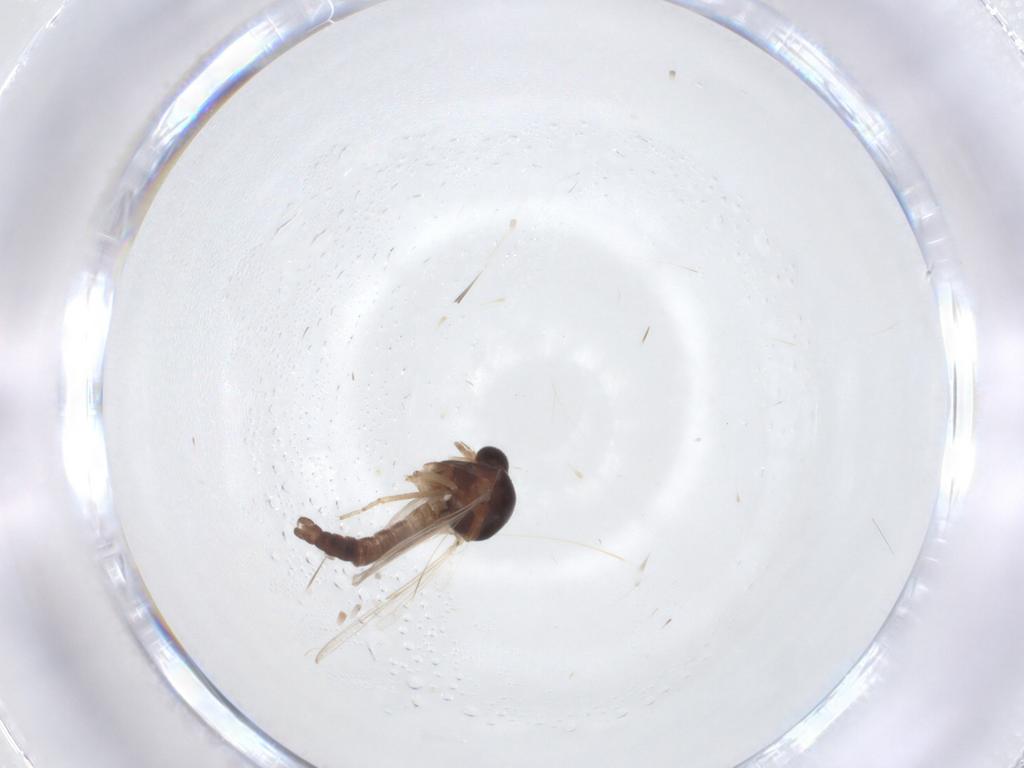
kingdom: Animalia
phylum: Arthropoda
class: Insecta
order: Diptera
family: Ceratopogonidae
